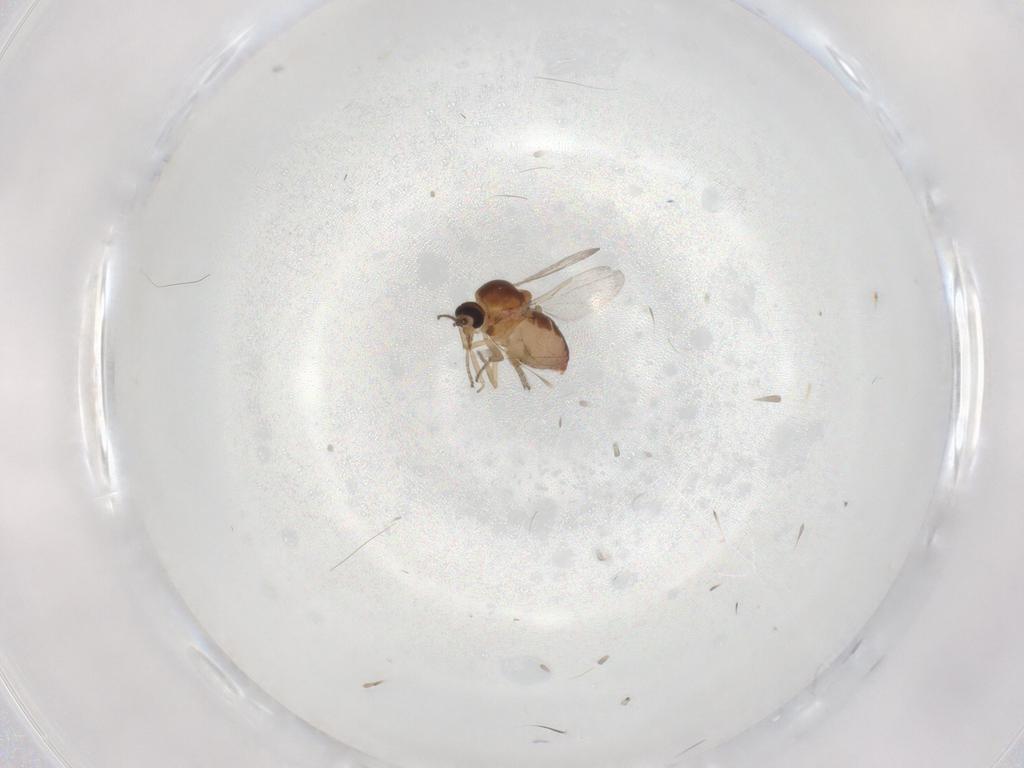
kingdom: Animalia
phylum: Arthropoda
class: Insecta
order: Diptera
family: Ceratopogonidae
